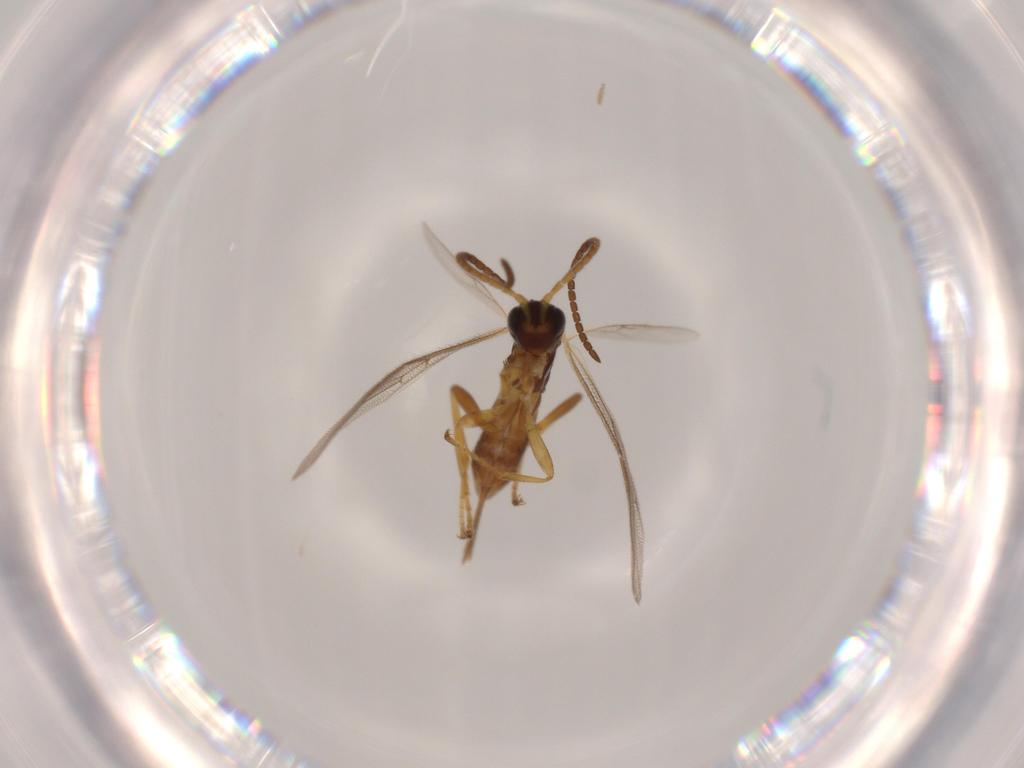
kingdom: Animalia
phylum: Arthropoda
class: Insecta
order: Hymenoptera
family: Ichneumonidae
